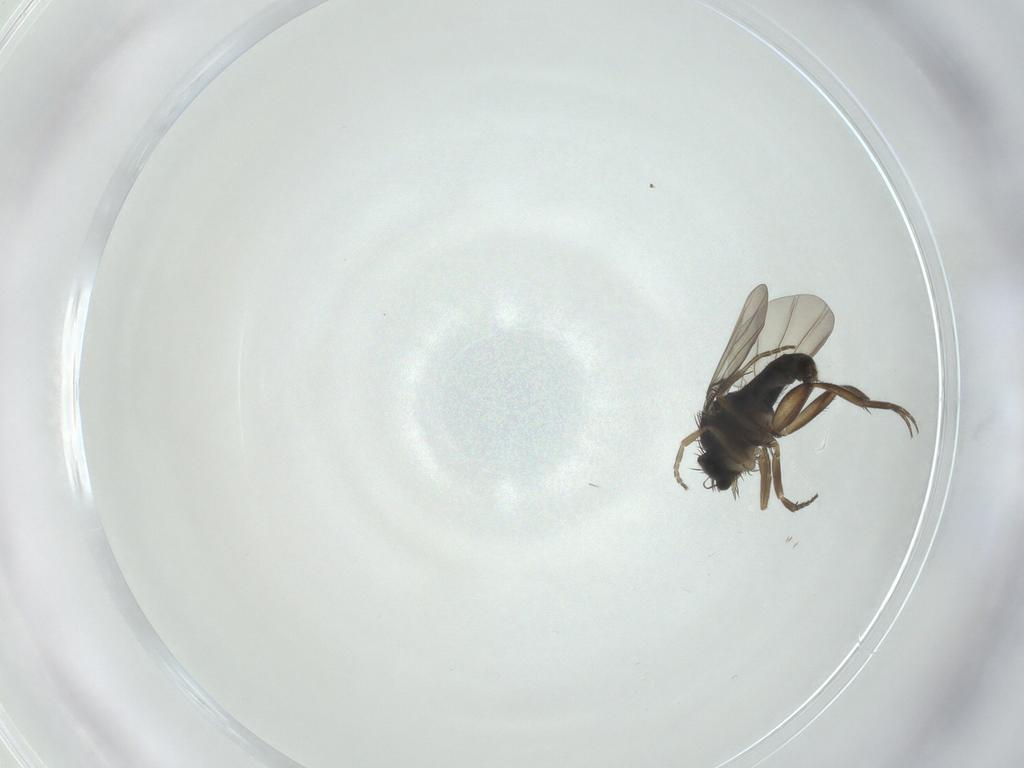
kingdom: Animalia
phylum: Arthropoda
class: Insecta
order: Diptera
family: Phoridae
